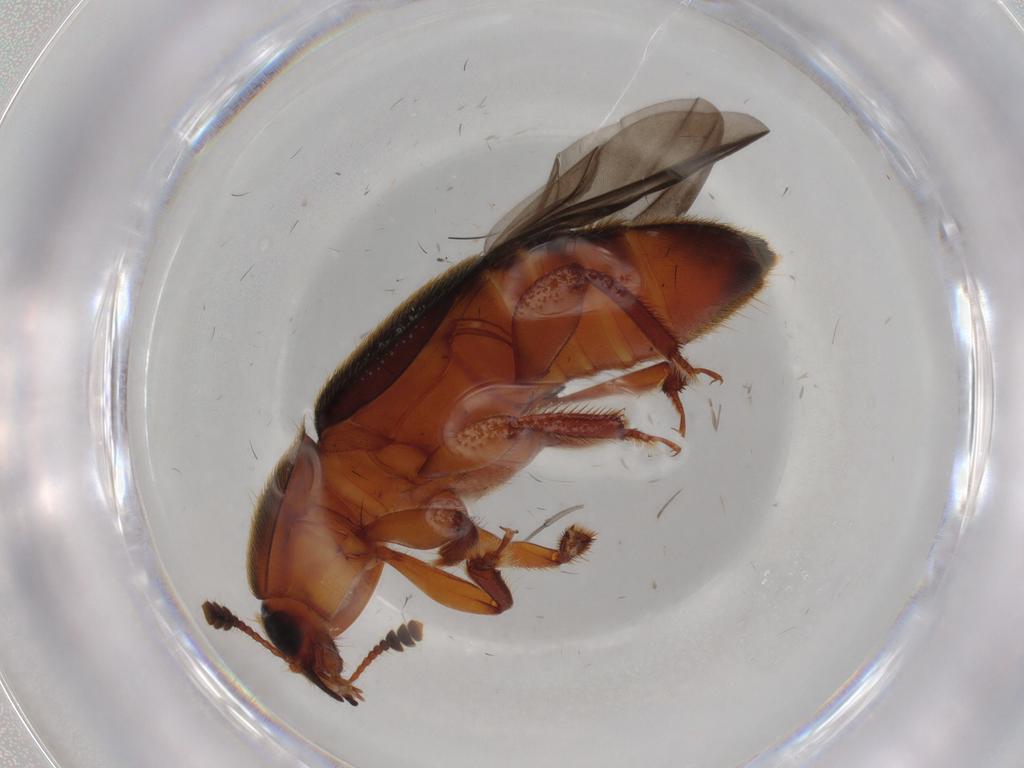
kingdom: Animalia
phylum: Arthropoda
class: Insecta
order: Coleoptera
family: Nitidulidae
